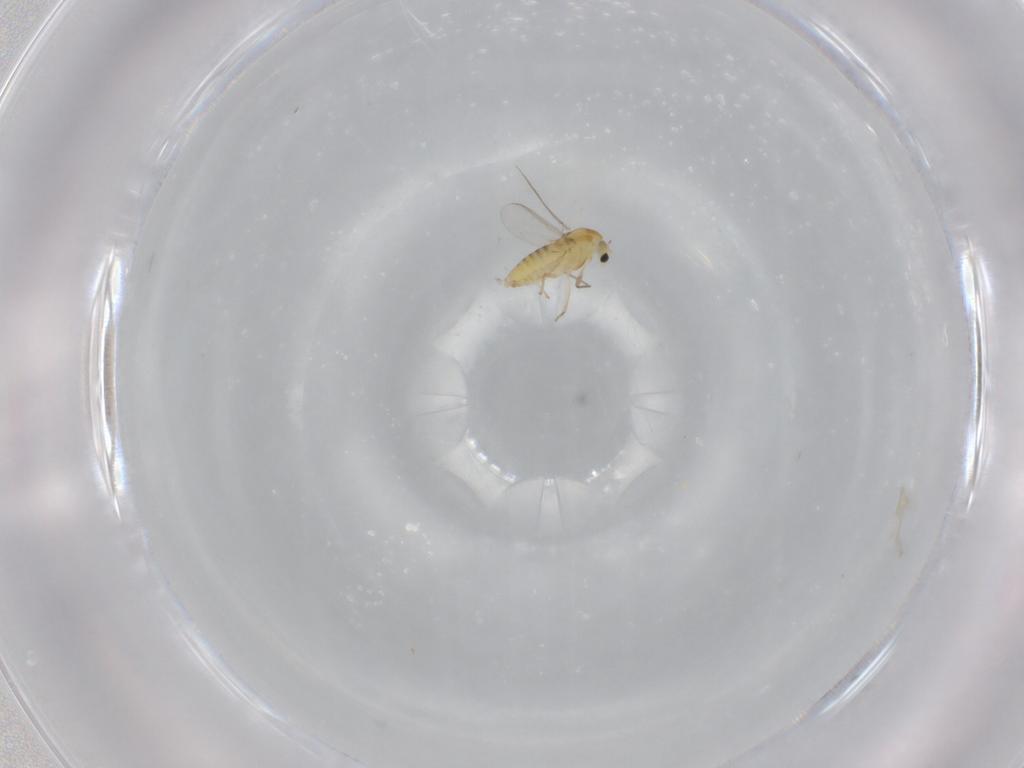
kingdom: Animalia
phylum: Arthropoda
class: Insecta
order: Diptera
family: Chironomidae
